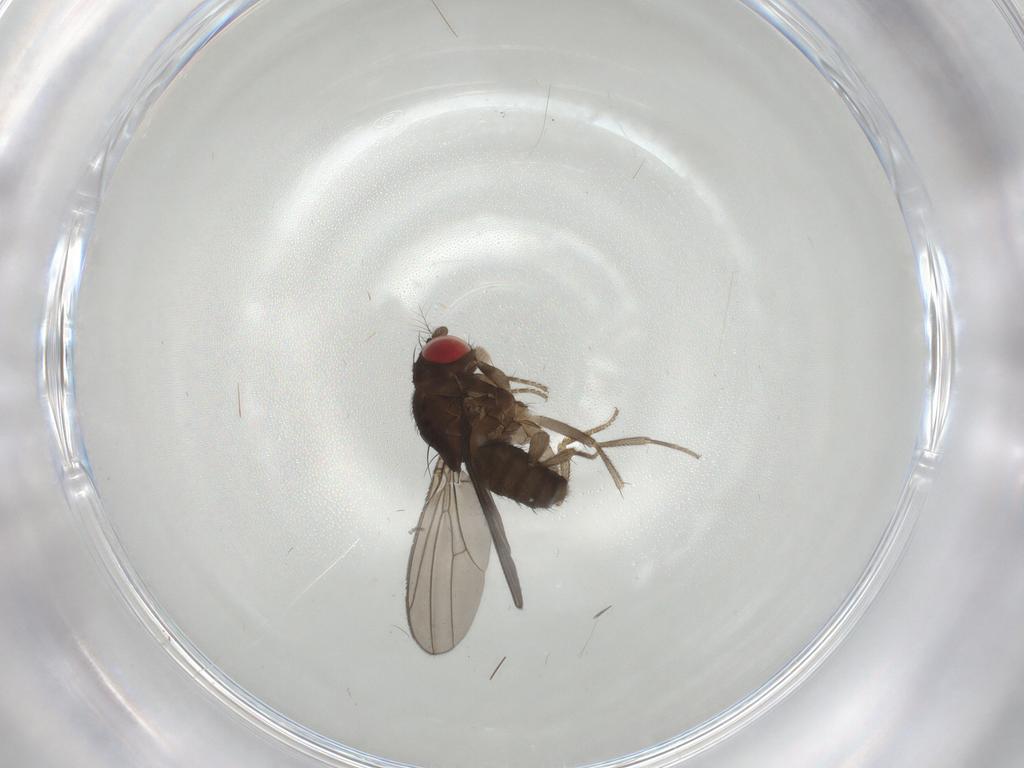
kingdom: Animalia
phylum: Arthropoda
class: Insecta
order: Diptera
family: Drosophilidae
